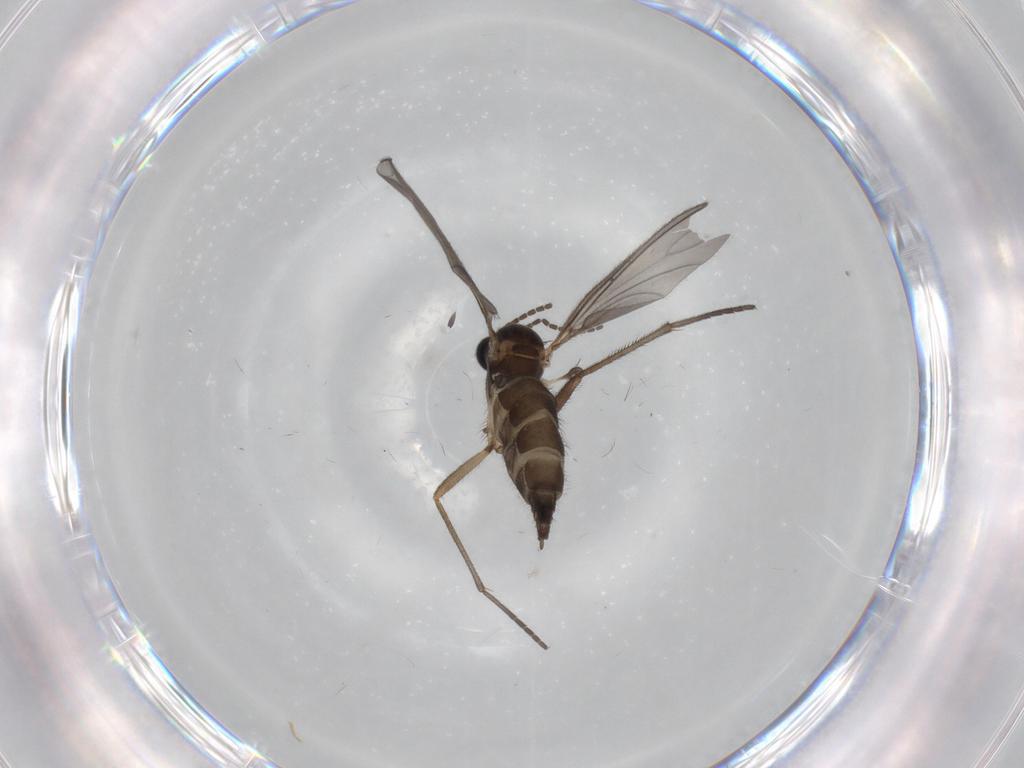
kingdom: Animalia
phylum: Arthropoda
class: Insecta
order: Diptera
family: Sciaridae
